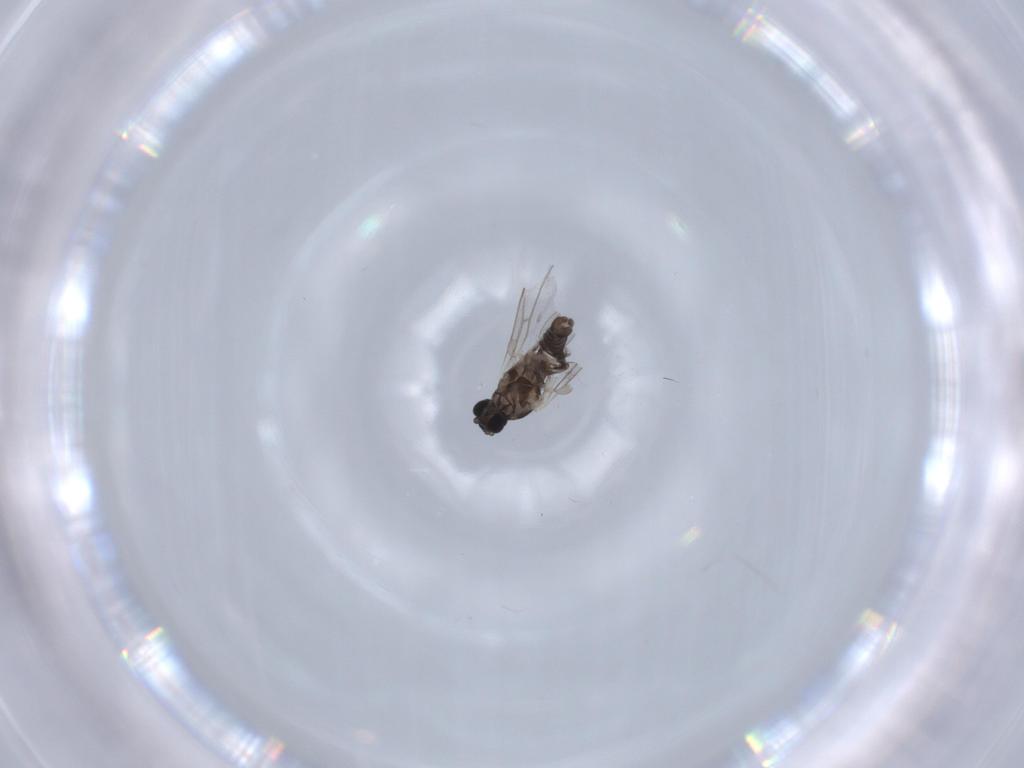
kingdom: Animalia
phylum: Arthropoda
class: Insecta
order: Diptera
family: Cecidomyiidae
